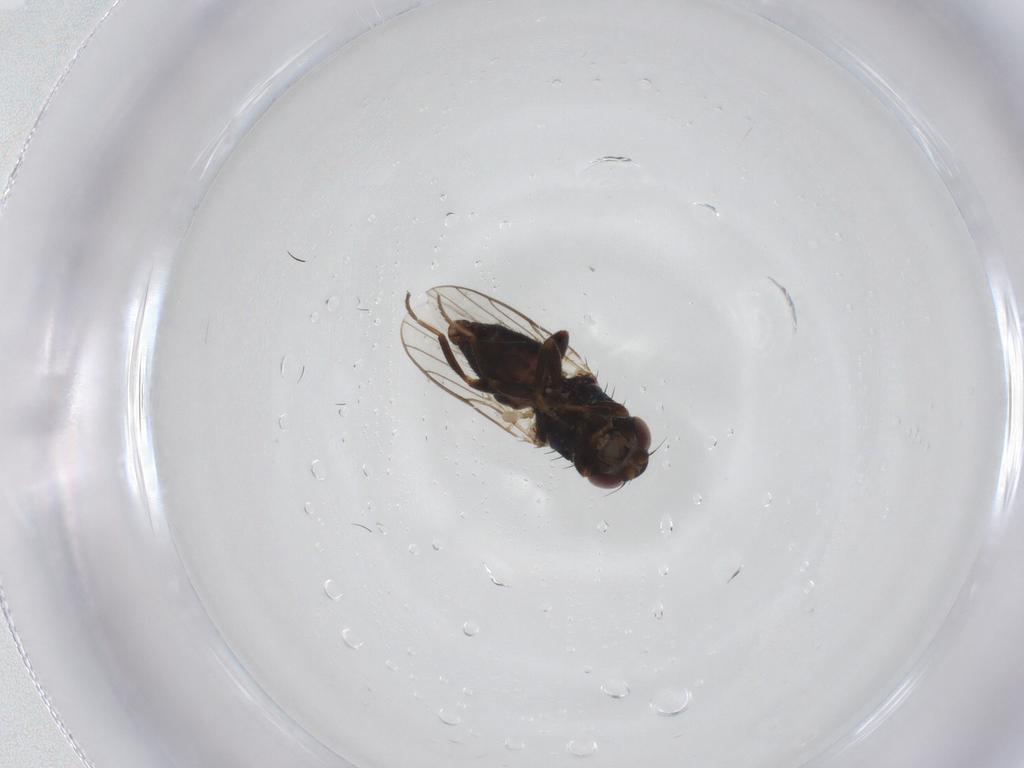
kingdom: Animalia
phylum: Arthropoda
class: Insecta
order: Diptera
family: Chloropidae
